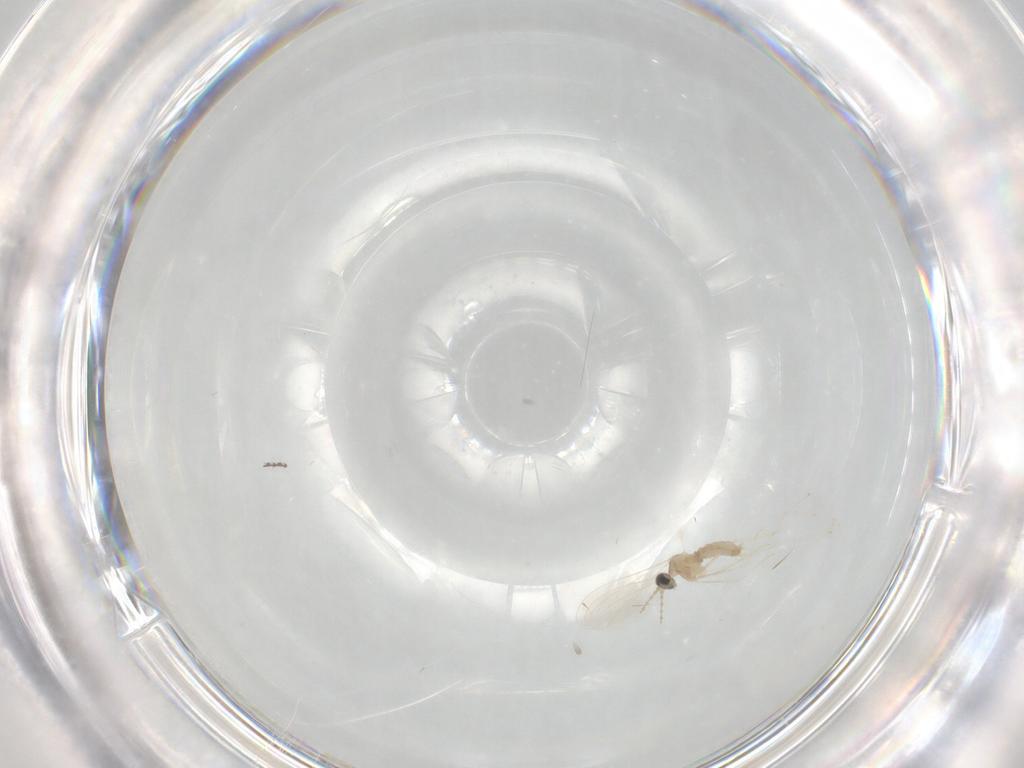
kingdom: Animalia
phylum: Arthropoda
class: Insecta
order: Diptera
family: Cecidomyiidae
